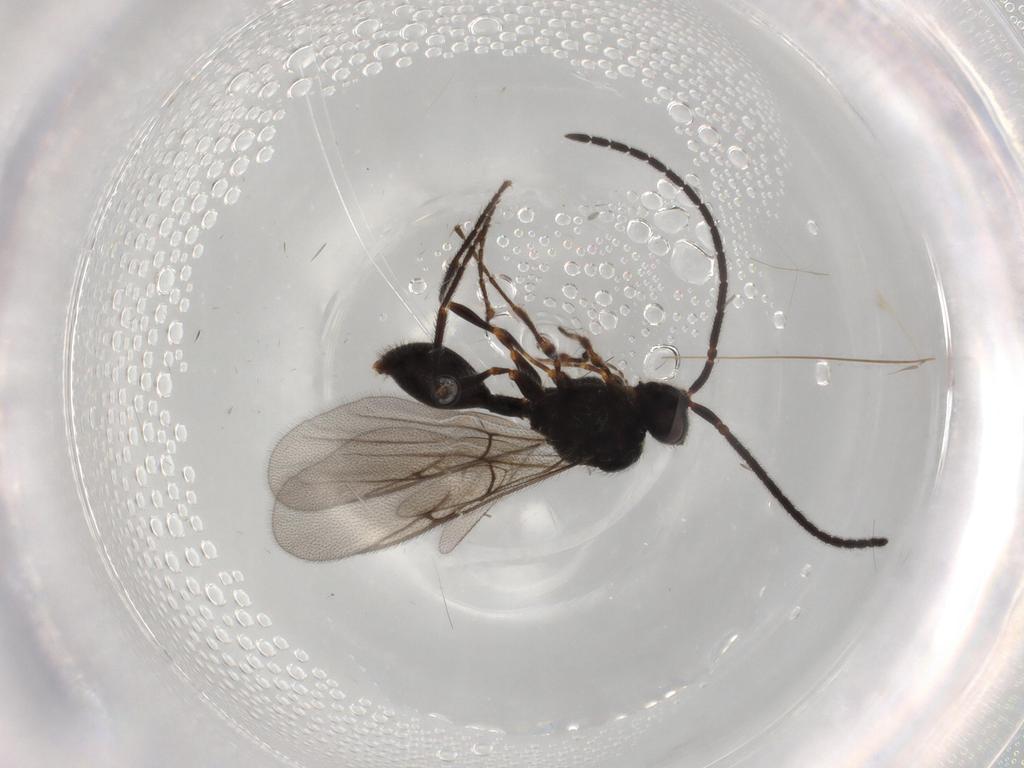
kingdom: Animalia
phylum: Arthropoda
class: Insecta
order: Hymenoptera
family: Diapriidae
